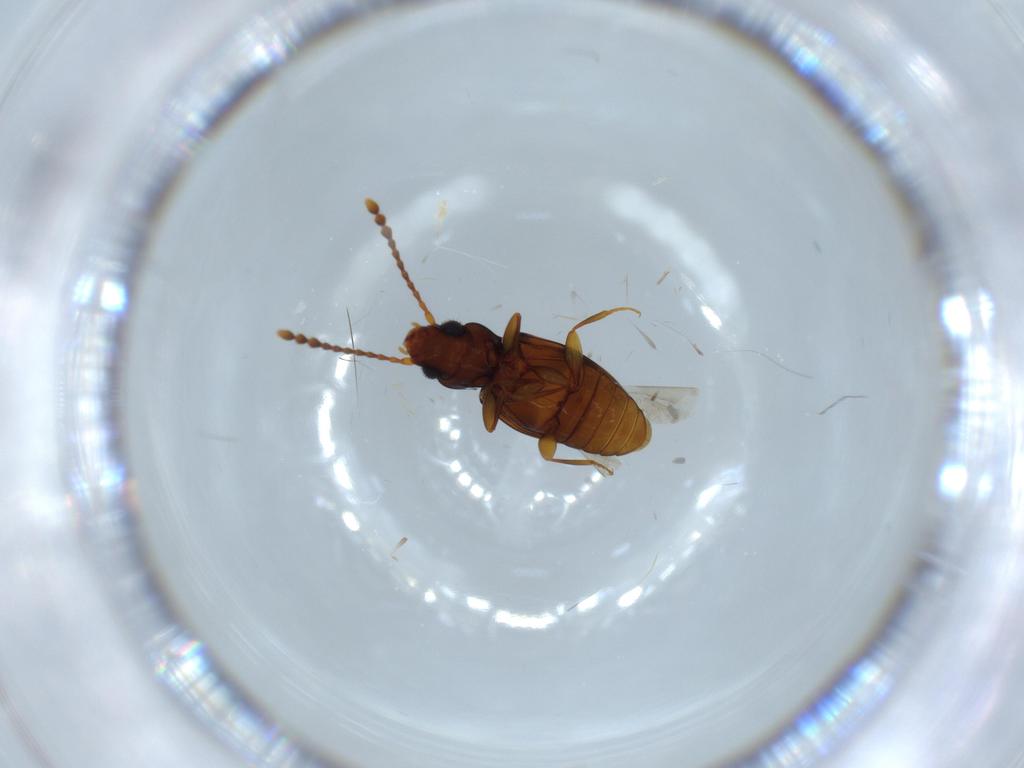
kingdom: Animalia
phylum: Arthropoda
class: Insecta
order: Coleoptera
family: Laemophloeidae
